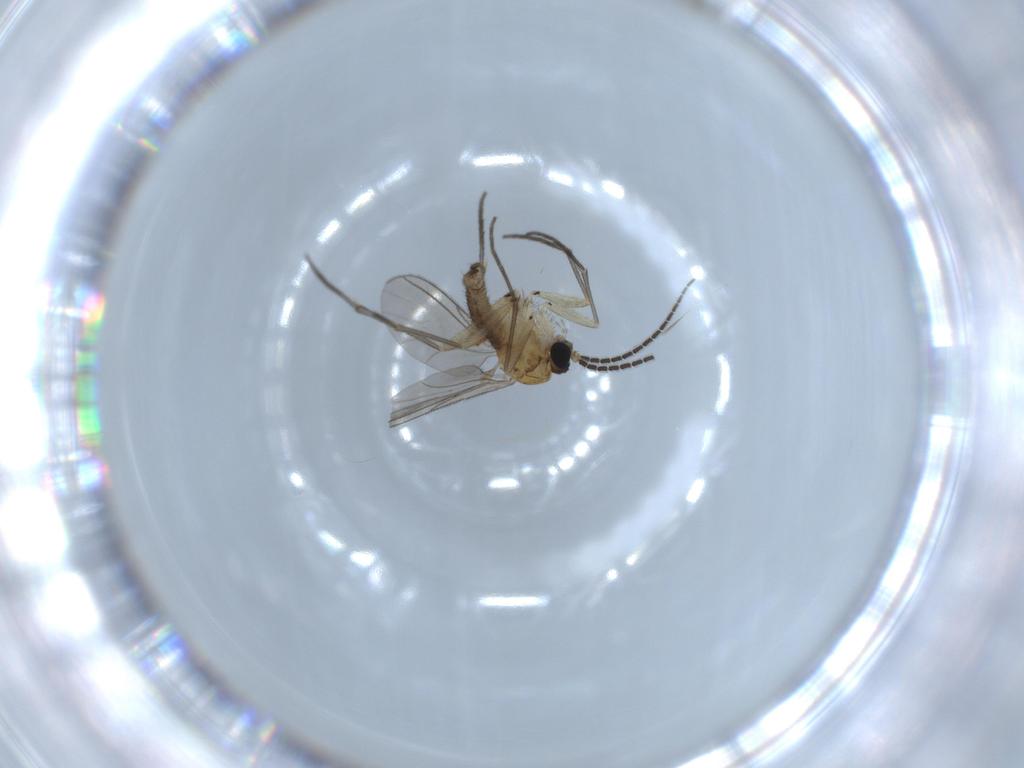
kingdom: Animalia
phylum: Arthropoda
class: Insecta
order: Diptera
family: Sciaridae
